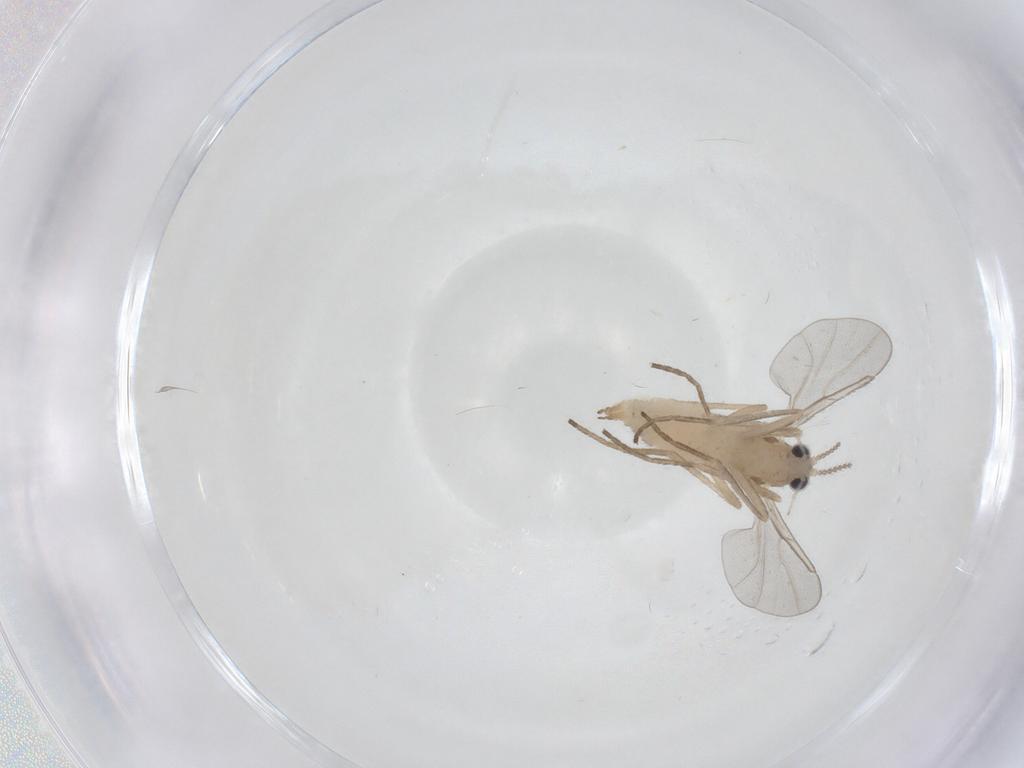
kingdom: Animalia
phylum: Arthropoda
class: Insecta
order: Diptera
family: Cecidomyiidae
